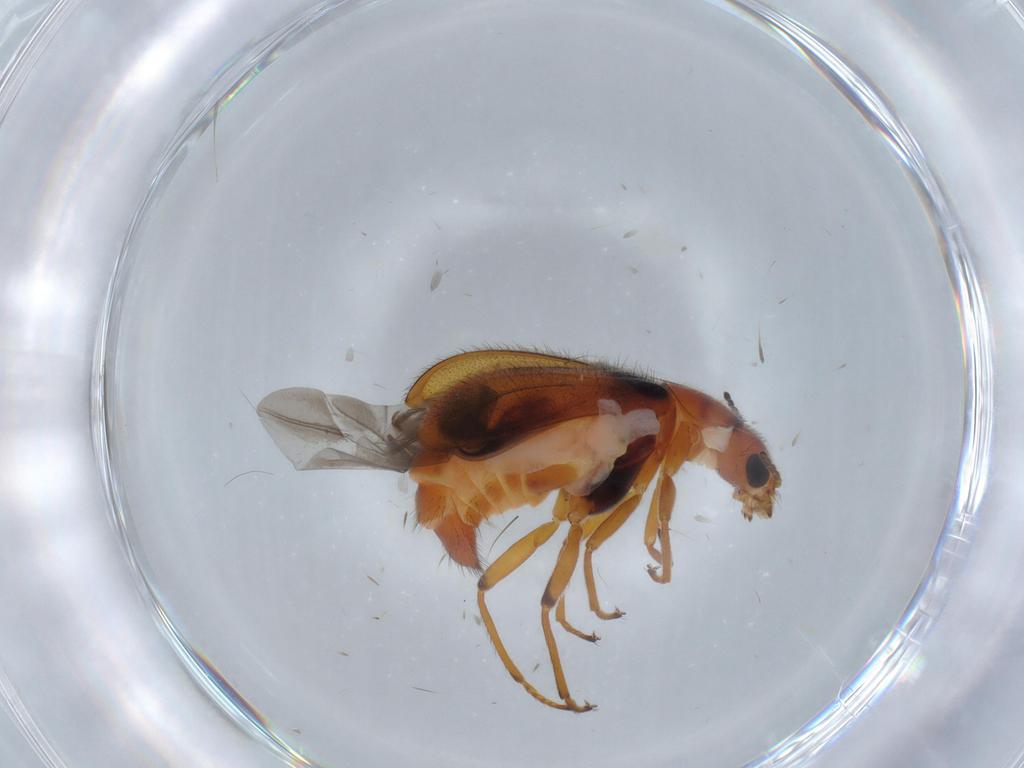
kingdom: Animalia
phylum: Arthropoda
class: Insecta
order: Coleoptera
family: Melyridae
